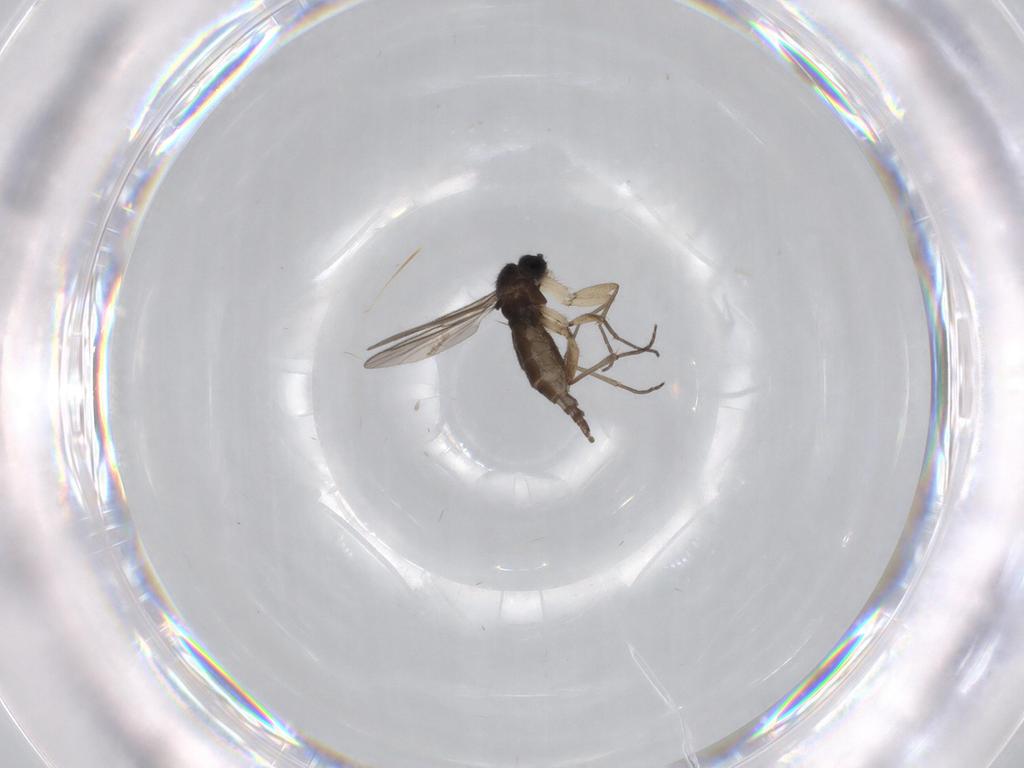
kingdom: Animalia
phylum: Arthropoda
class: Insecta
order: Diptera
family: Sciaridae
